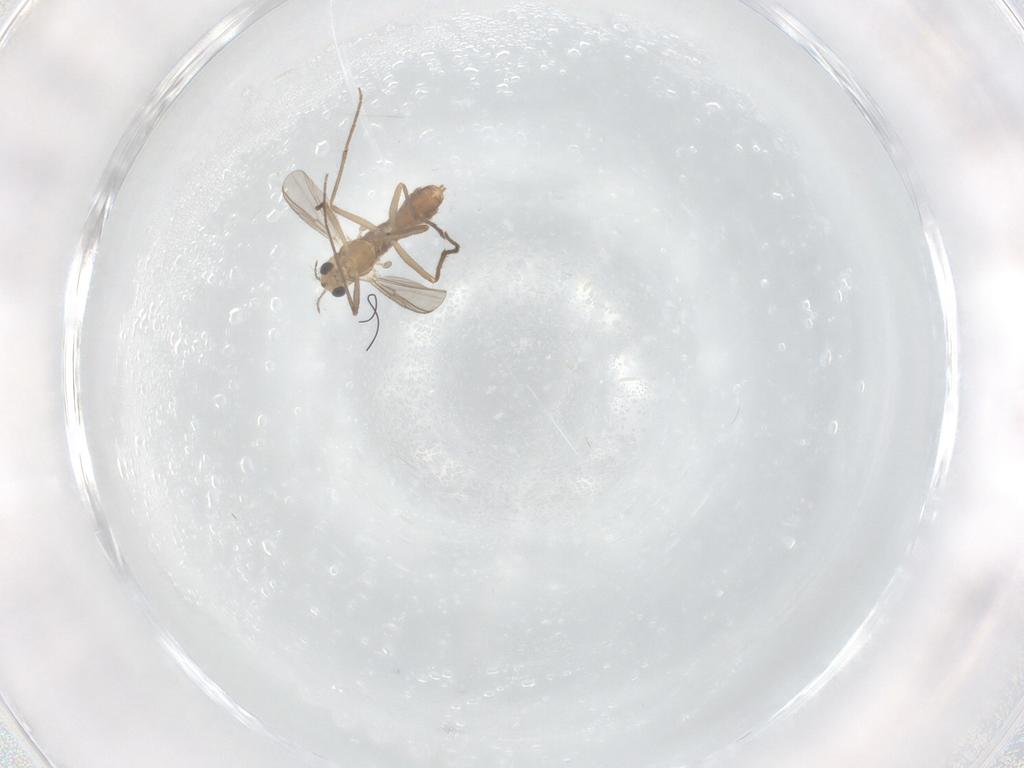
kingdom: Animalia
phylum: Arthropoda
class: Insecta
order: Diptera
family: Chironomidae
